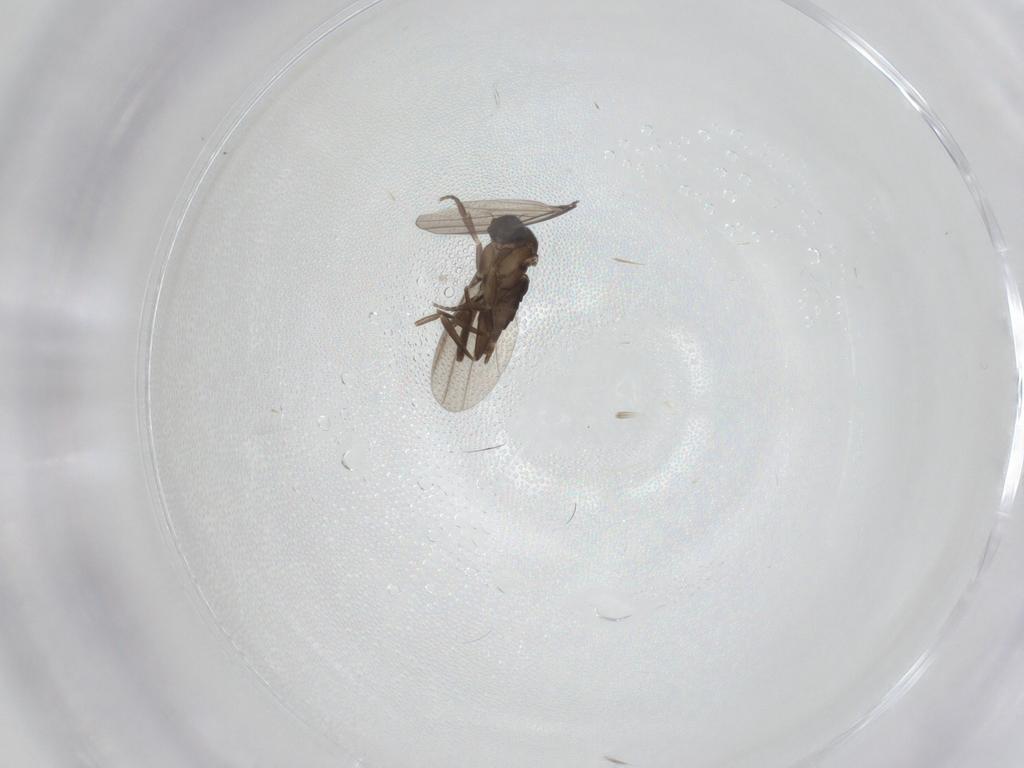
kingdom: Animalia
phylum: Arthropoda
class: Insecta
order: Diptera
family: Phoridae
